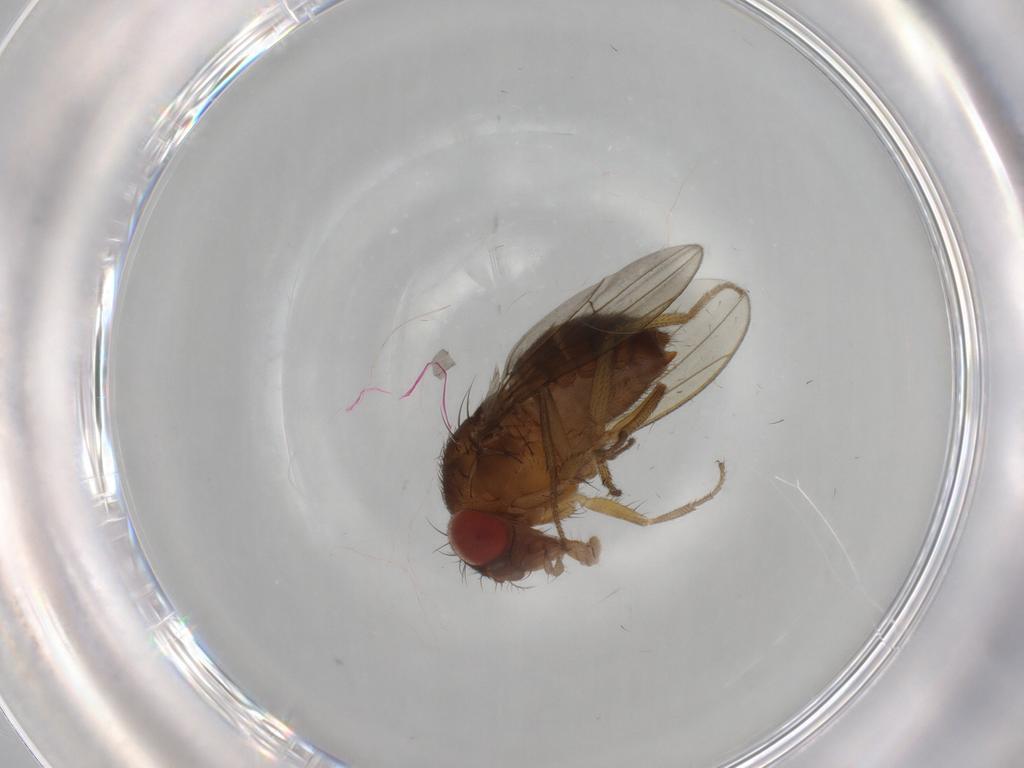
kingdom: Animalia
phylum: Arthropoda
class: Insecta
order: Diptera
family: Drosophilidae
